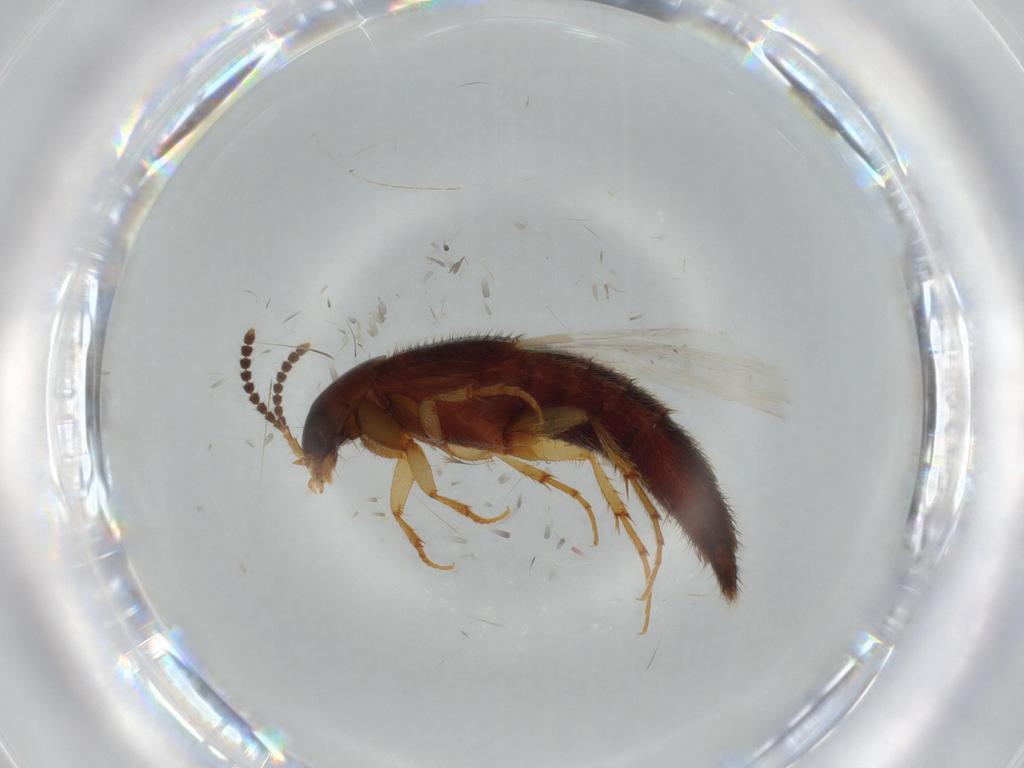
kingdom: Animalia
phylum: Arthropoda
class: Insecta
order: Coleoptera
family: Staphylinidae
